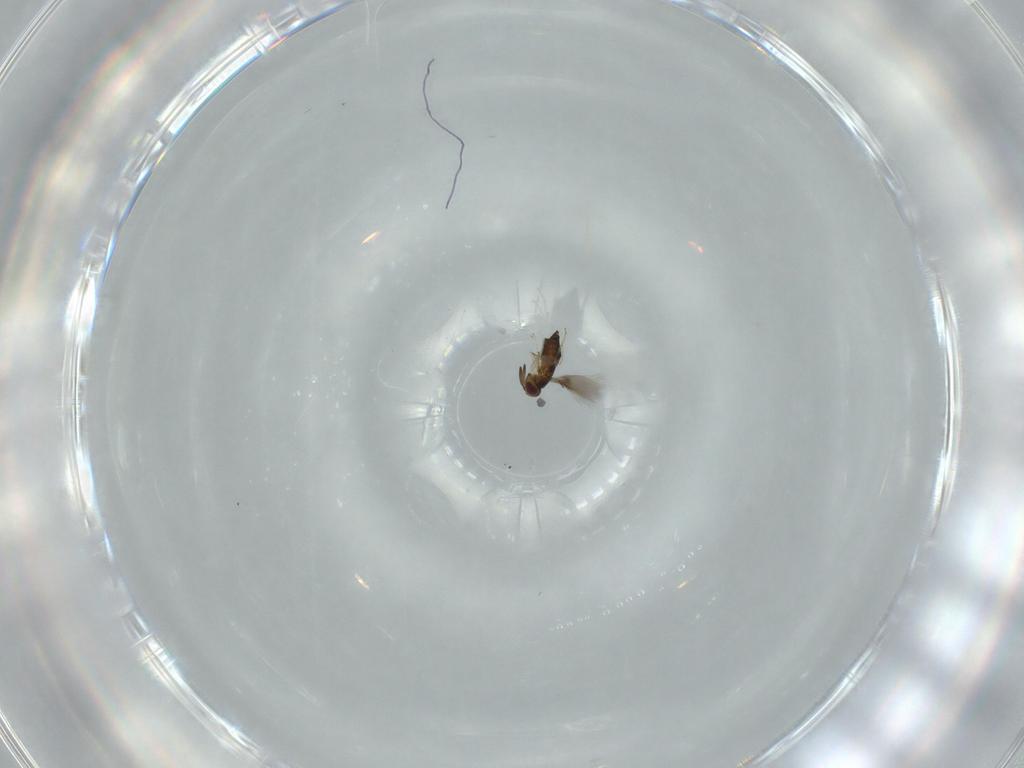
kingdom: Animalia
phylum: Arthropoda
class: Insecta
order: Hymenoptera
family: Signiphoridae
